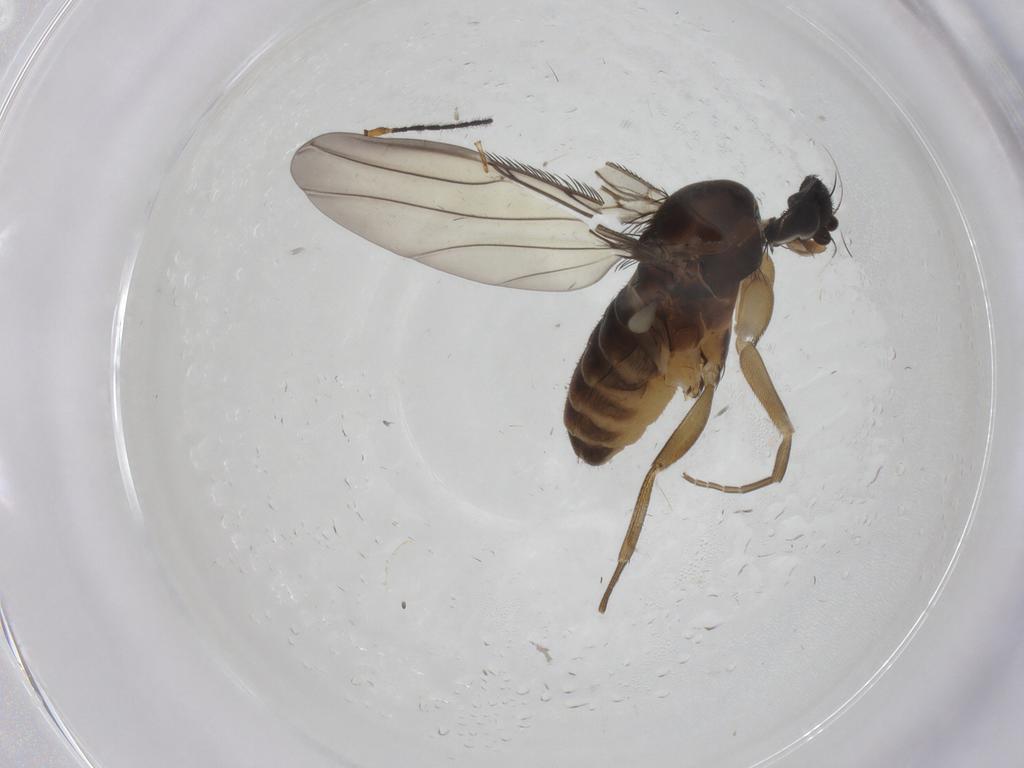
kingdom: Animalia
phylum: Arthropoda
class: Insecta
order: Diptera
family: Phoridae
